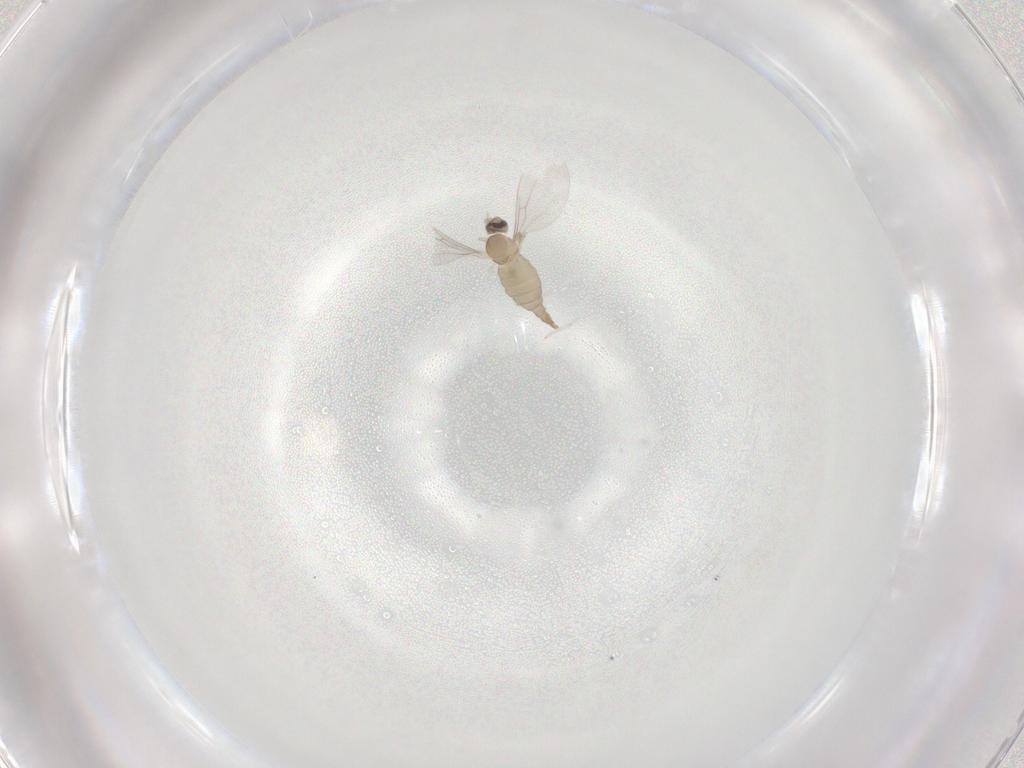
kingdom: Animalia
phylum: Arthropoda
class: Insecta
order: Diptera
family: Cecidomyiidae
